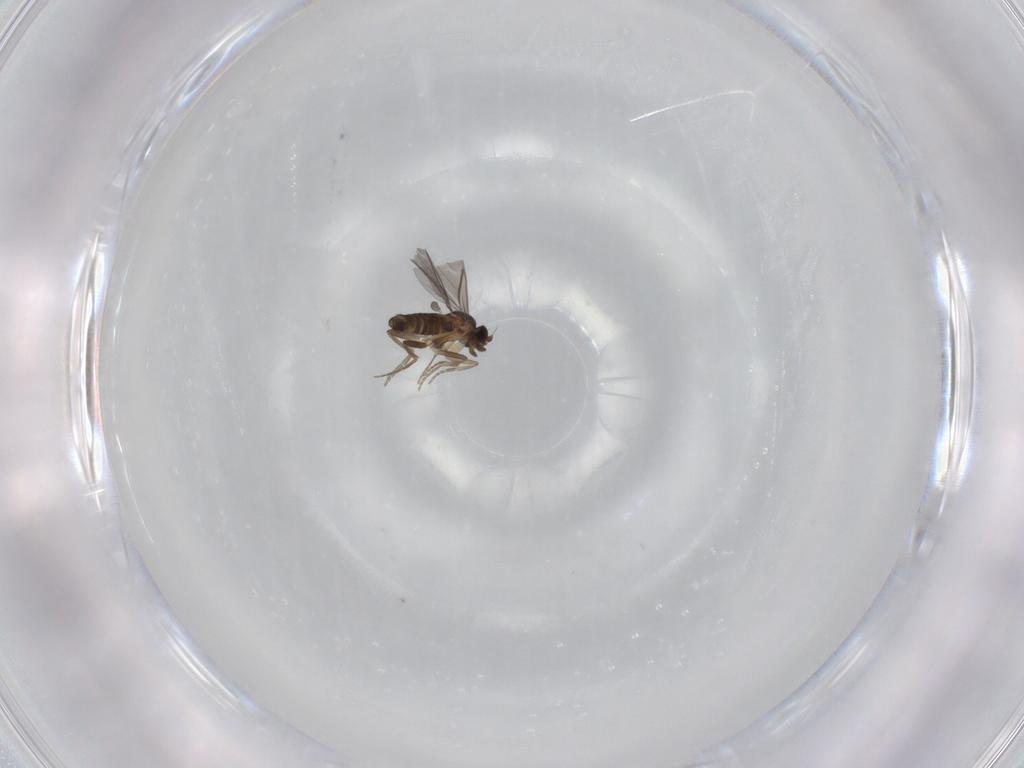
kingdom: Animalia
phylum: Arthropoda
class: Insecta
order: Diptera
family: Phoridae
